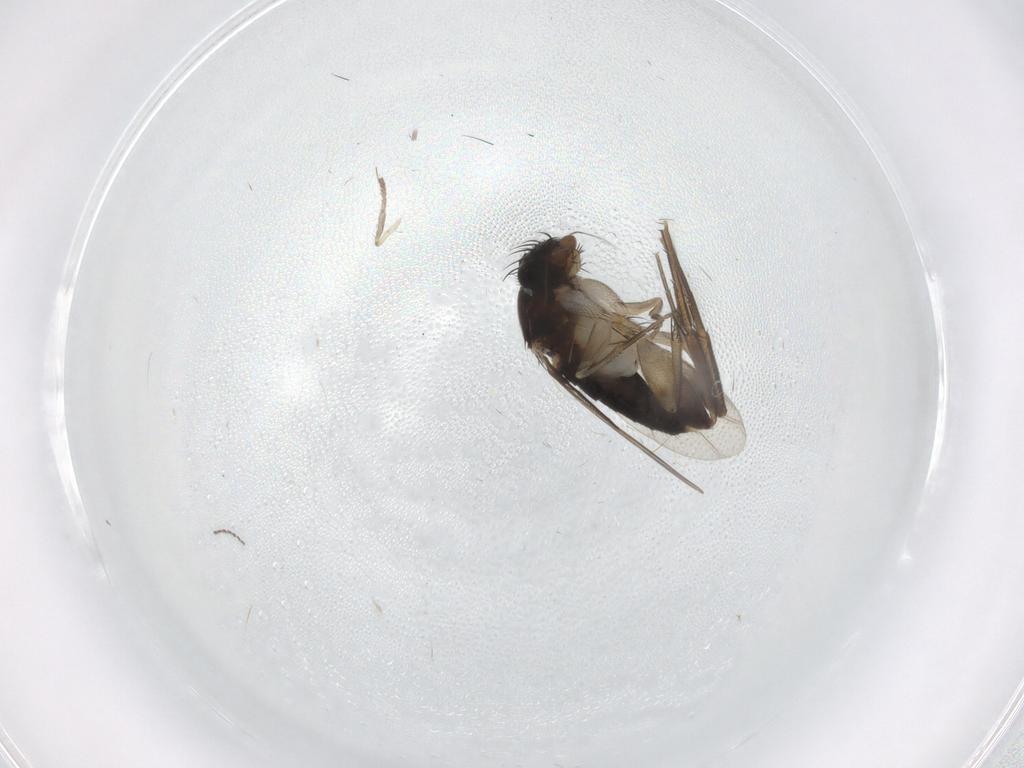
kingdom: Animalia
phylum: Arthropoda
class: Insecta
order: Diptera
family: Phoridae
